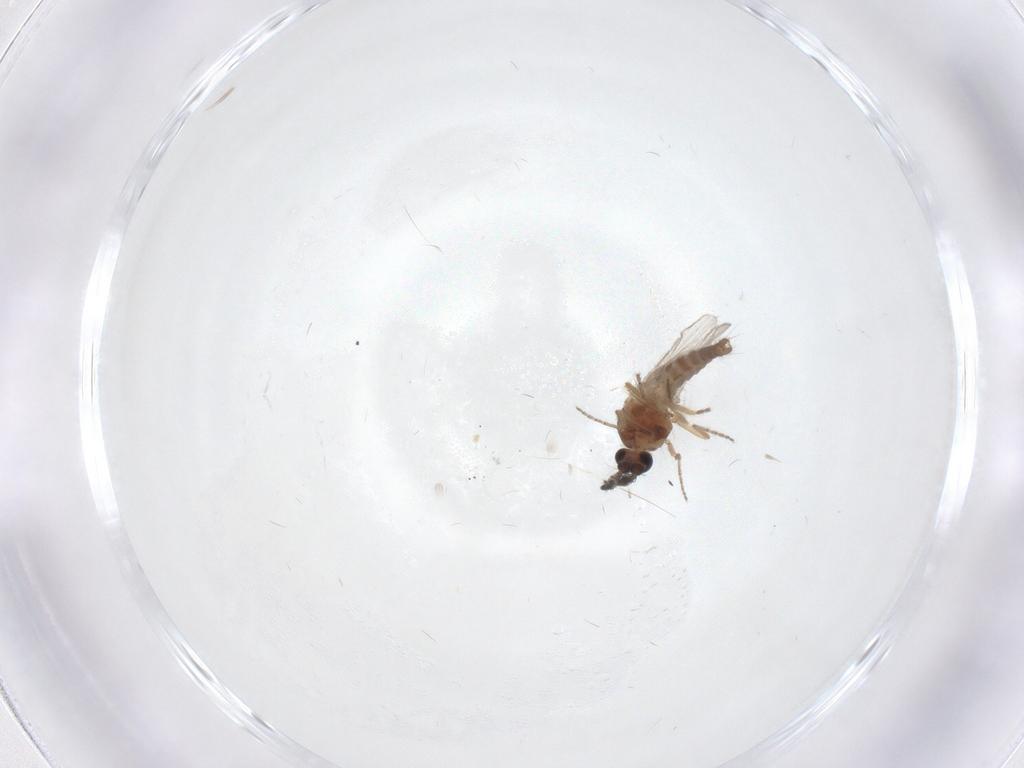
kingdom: Animalia
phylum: Arthropoda
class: Insecta
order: Diptera
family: Ceratopogonidae
